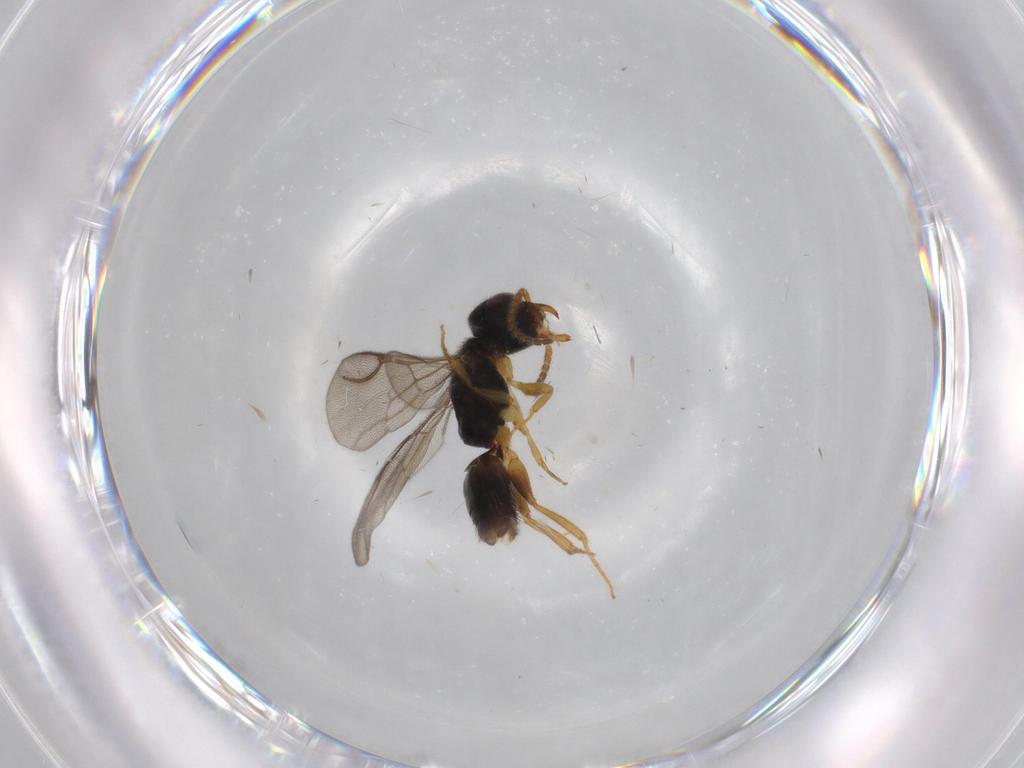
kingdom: Animalia
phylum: Arthropoda
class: Insecta
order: Hymenoptera
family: Bethylidae
